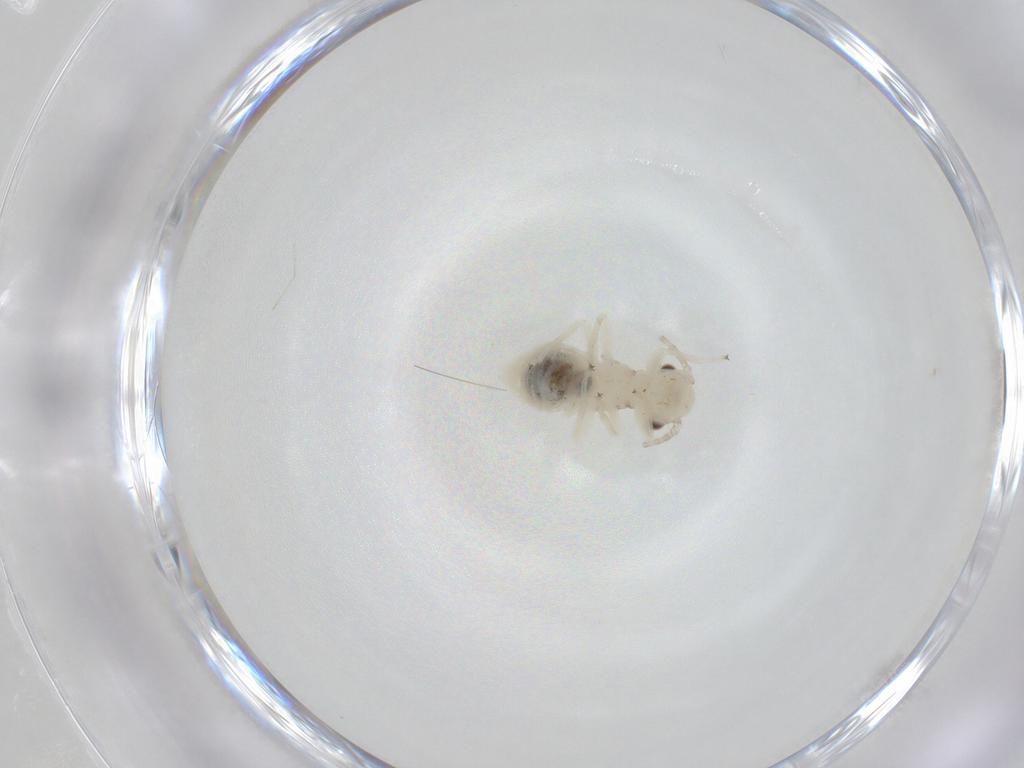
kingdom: Animalia
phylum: Arthropoda
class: Insecta
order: Psocodea
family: Amphipsocidae
